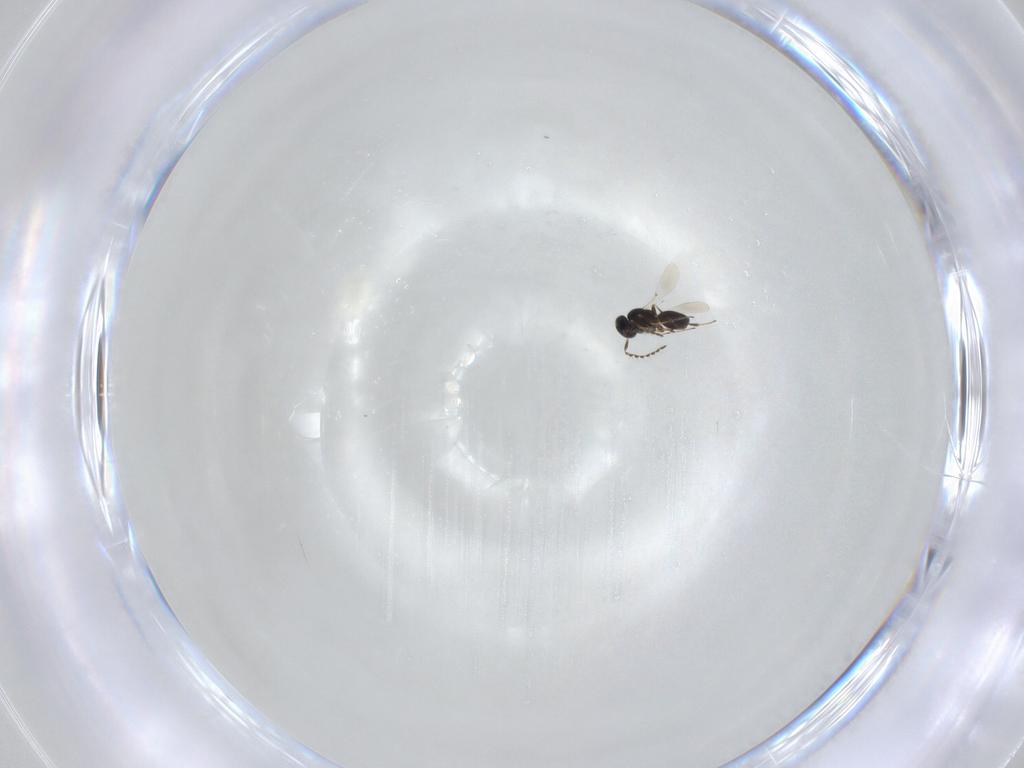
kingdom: Animalia
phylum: Arthropoda
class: Insecta
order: Hymenoptera
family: Platygastridae
